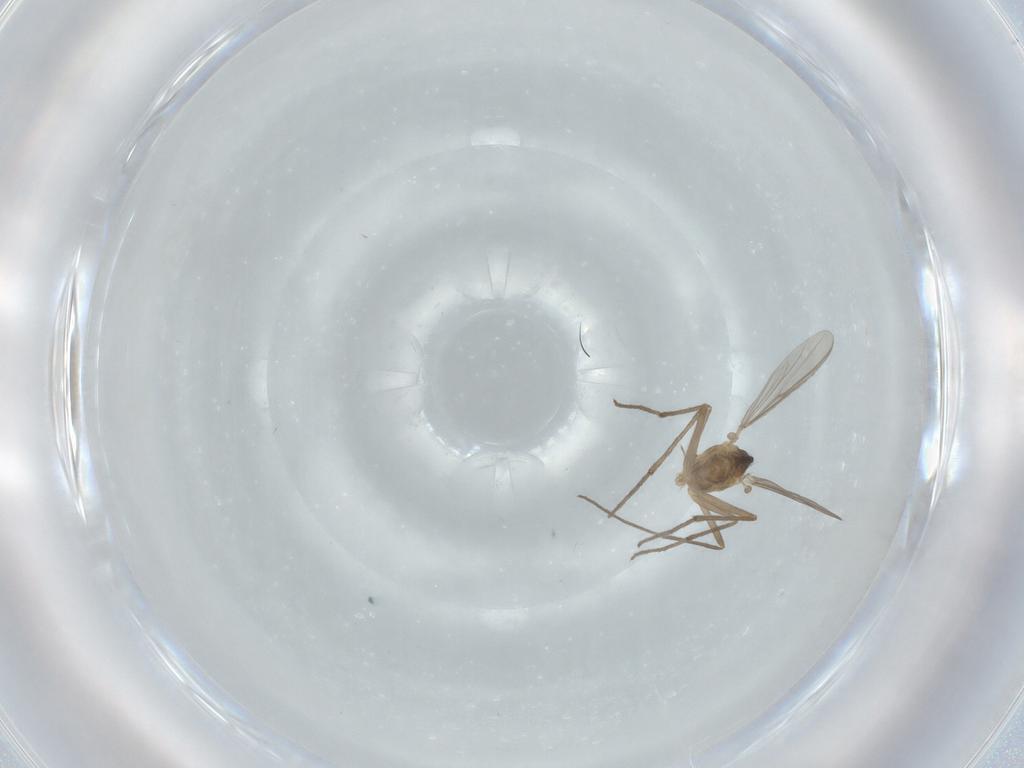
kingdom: Animalia
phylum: Arthropoda
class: Insecta
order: Diptera
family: Chironomidae
